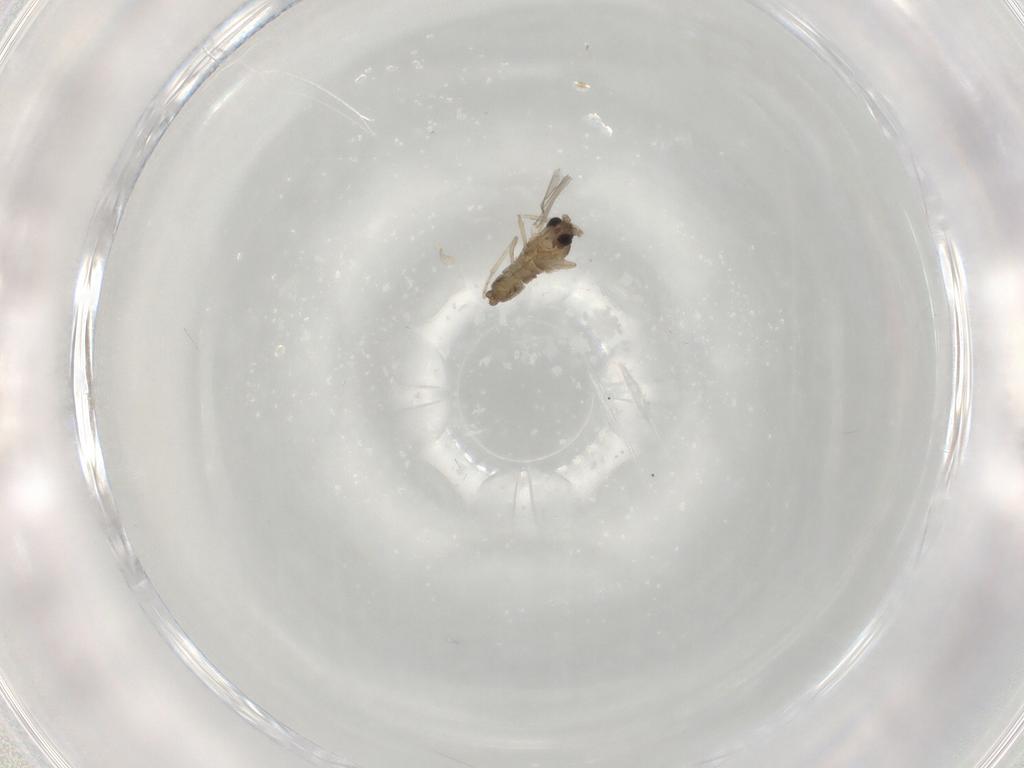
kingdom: Animalia
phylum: Arthropoda
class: Insecta
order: Diptera
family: Cecidomyiidae
